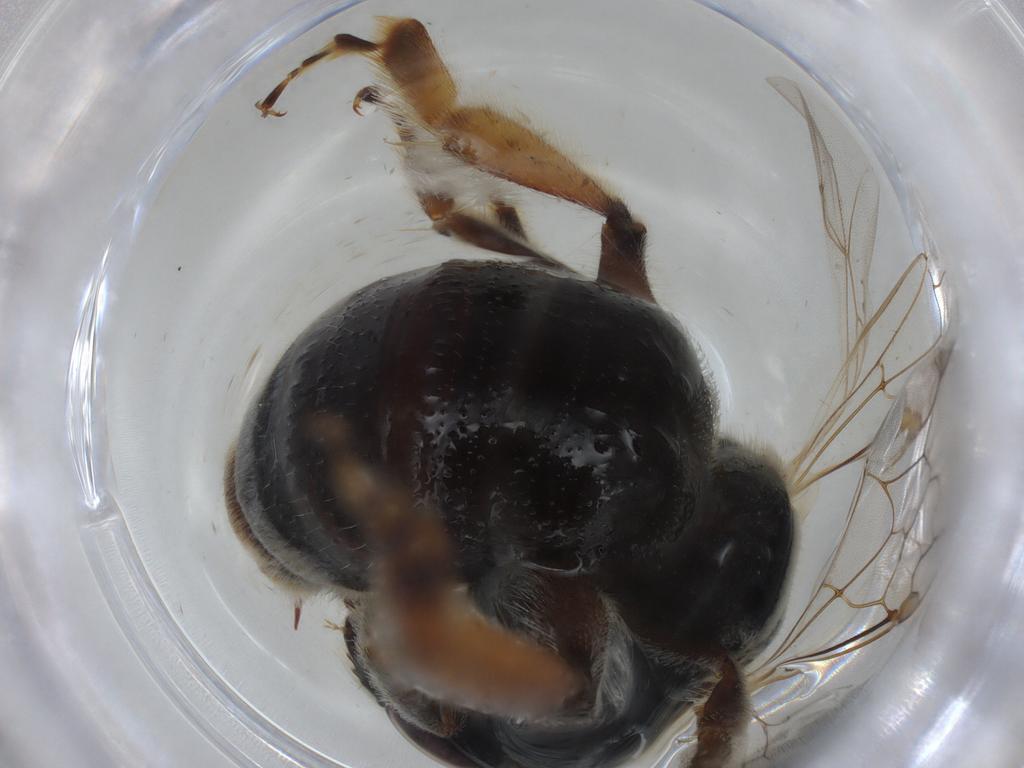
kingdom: Animalia
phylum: Arthropoda
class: Insecta
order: Hymenoptera
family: Halictidae
